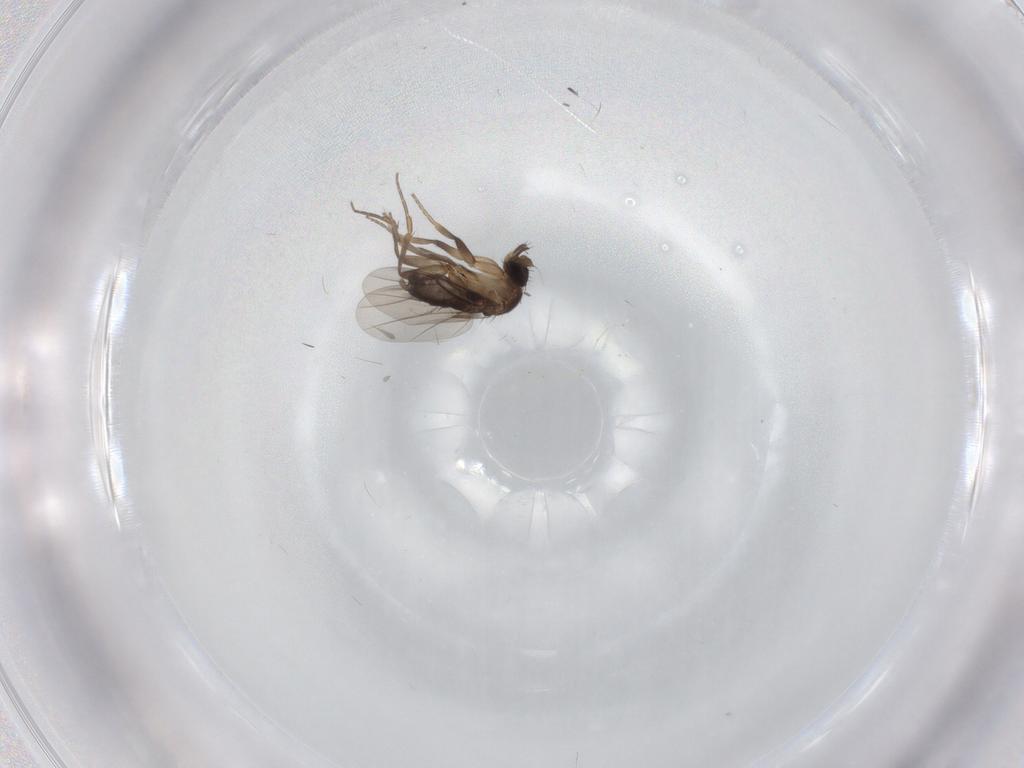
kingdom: Animalia
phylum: Arthropoda
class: Insecta
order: Diptera
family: Phoridae
